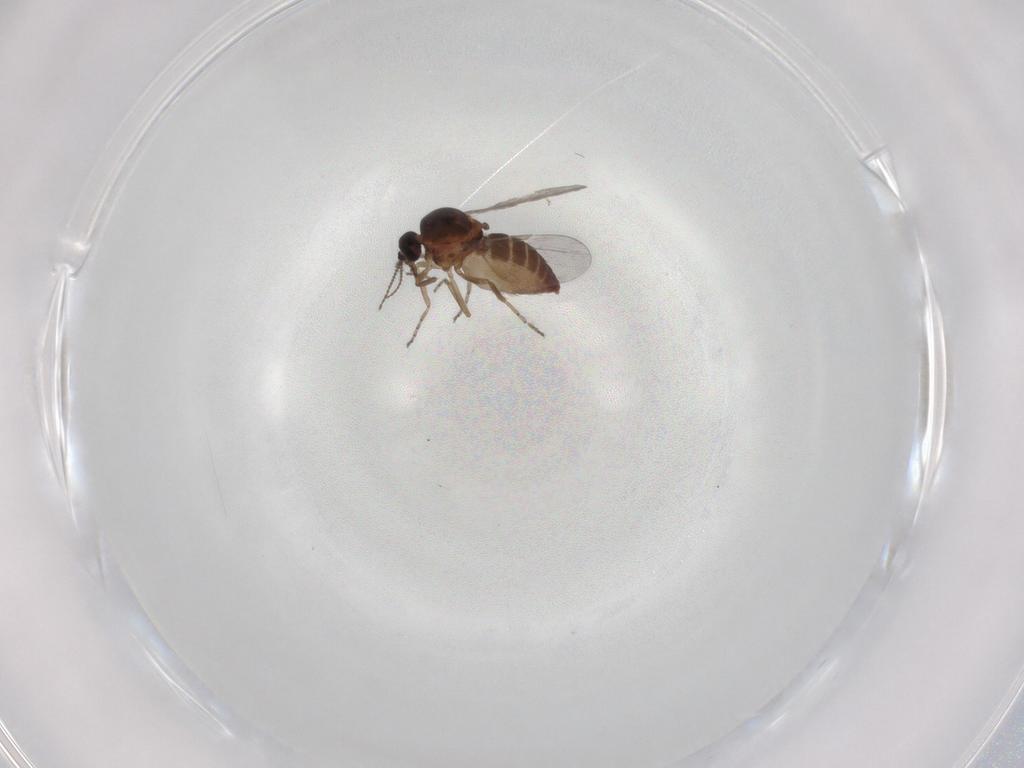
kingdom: Animalia
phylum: Arthropoda
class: Insecta
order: Diptera
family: Ceratopogonidae
